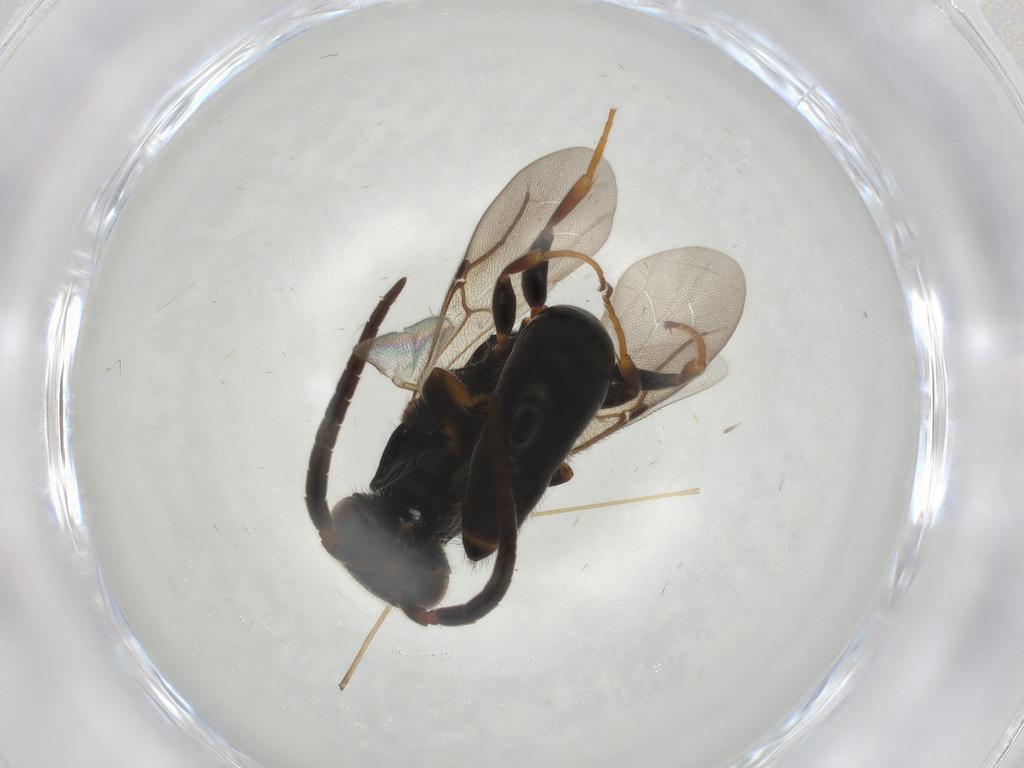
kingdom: Animalia
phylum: Arthropoda
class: Insecta
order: Hymenoptera
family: Bethylidae
